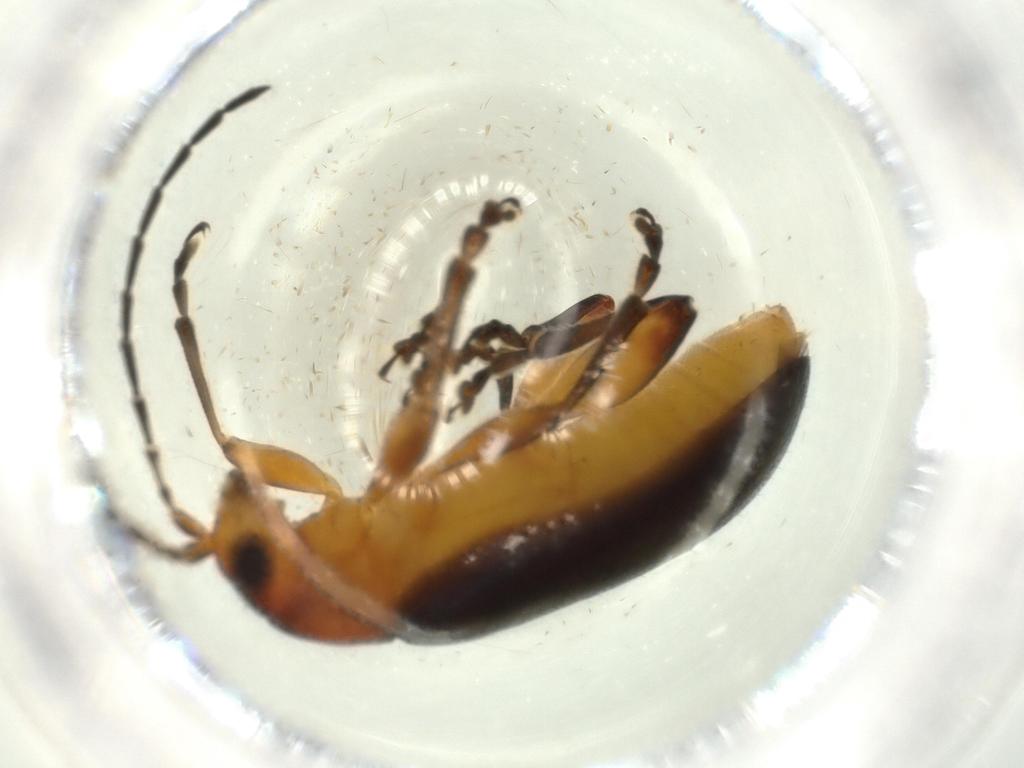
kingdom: Animalia
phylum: Arthropoda
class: Insecta
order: Coleoptera
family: Chrysomelidae
